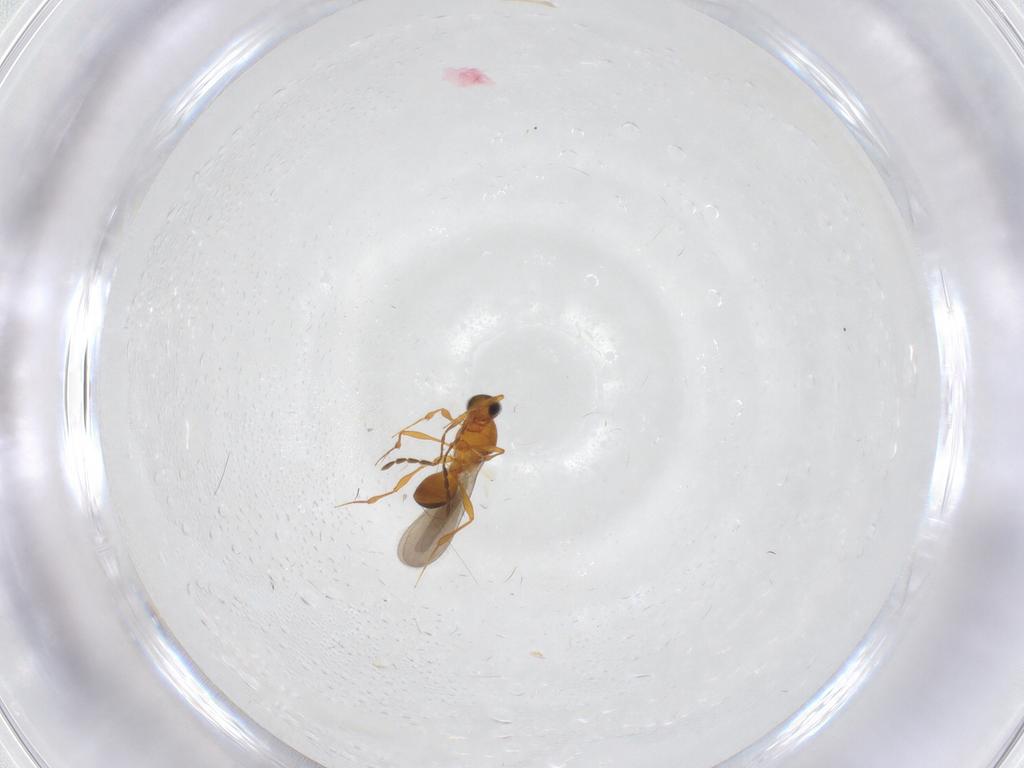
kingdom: Animalia
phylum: Arthropoda
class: Insecta
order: Hymenoptera
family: Platygastridae
